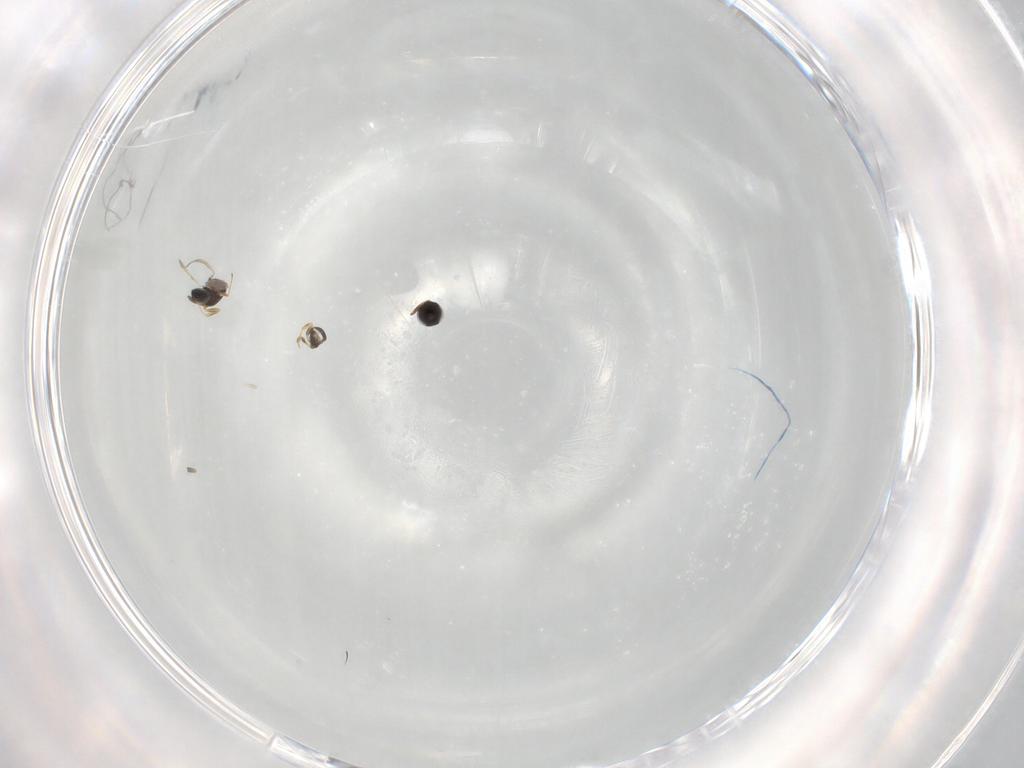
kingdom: Animalia
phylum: Arthropoda
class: Insecta
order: Hymenoptera
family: Scelionidae
